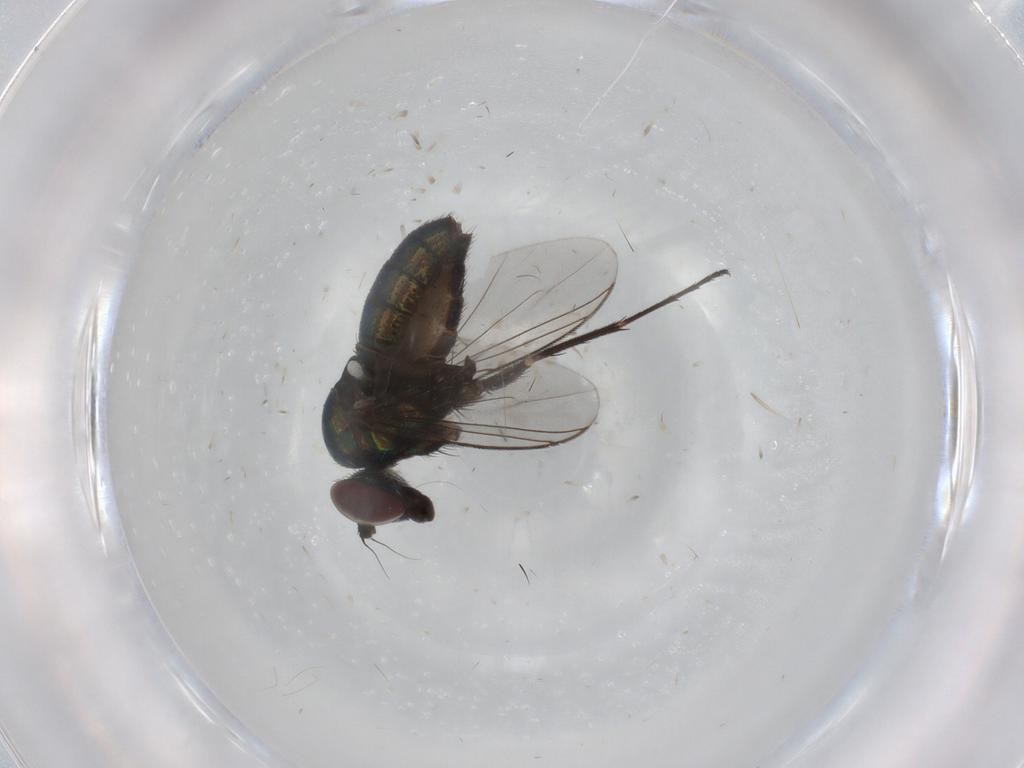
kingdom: Animalia
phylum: Arthropoda
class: Insecta
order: Diptera
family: Dolichopodidae
